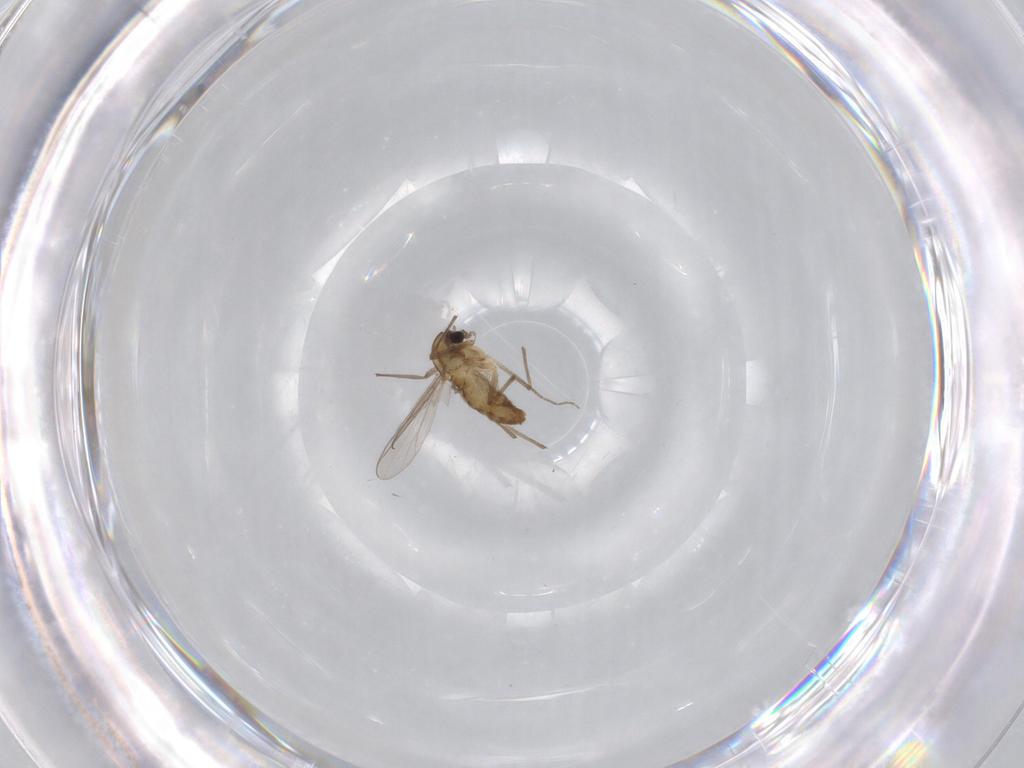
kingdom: Animalia
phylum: Arthropoda
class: Insecta
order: Diptera
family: Chironomidae
